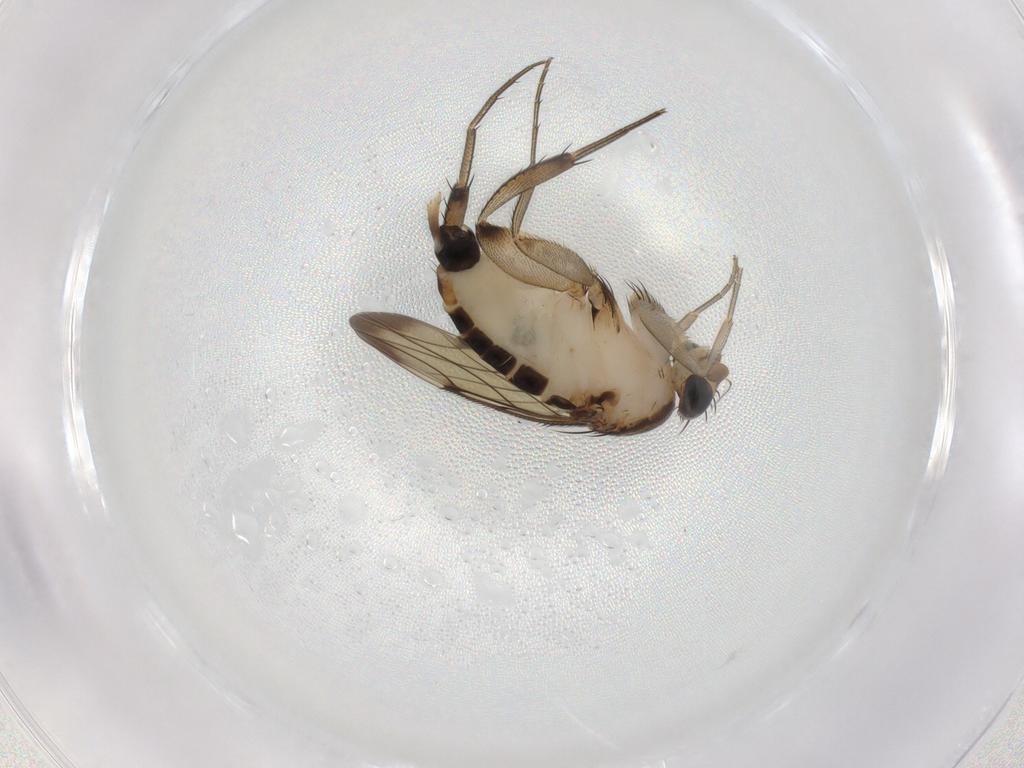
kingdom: Animalia
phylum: Arthropoda
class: Insecta
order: Diptera
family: Phoridae
